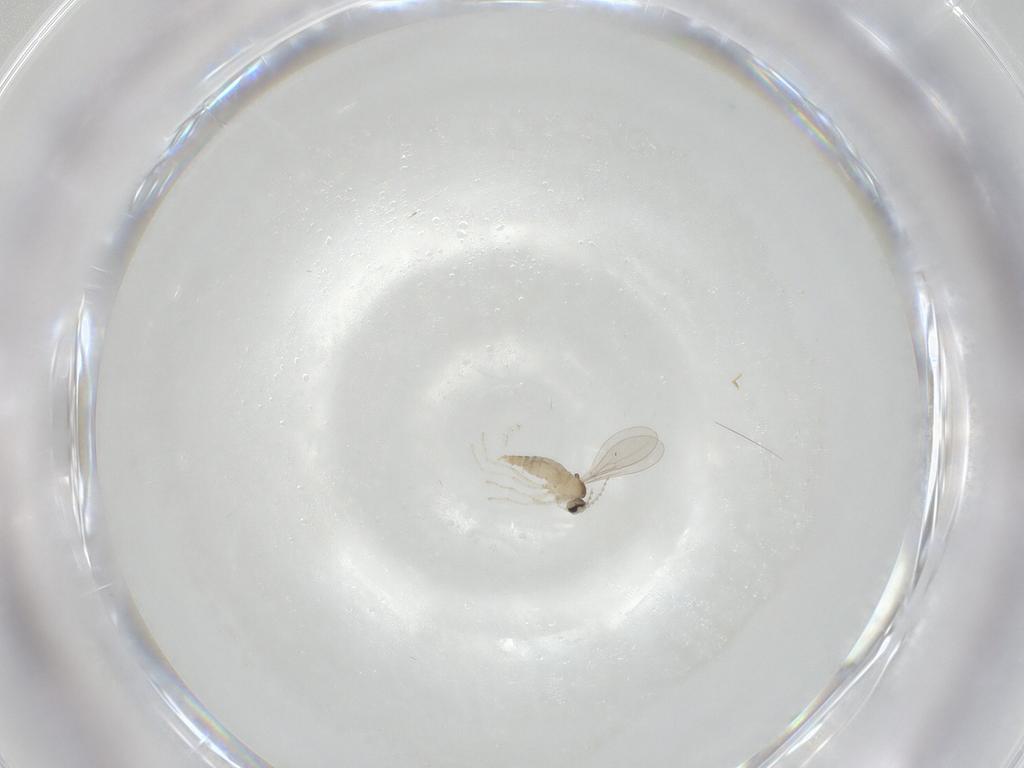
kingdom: Animalia
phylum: Arthropoda
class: Insecta
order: Diptera
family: Cecidomyiidae
